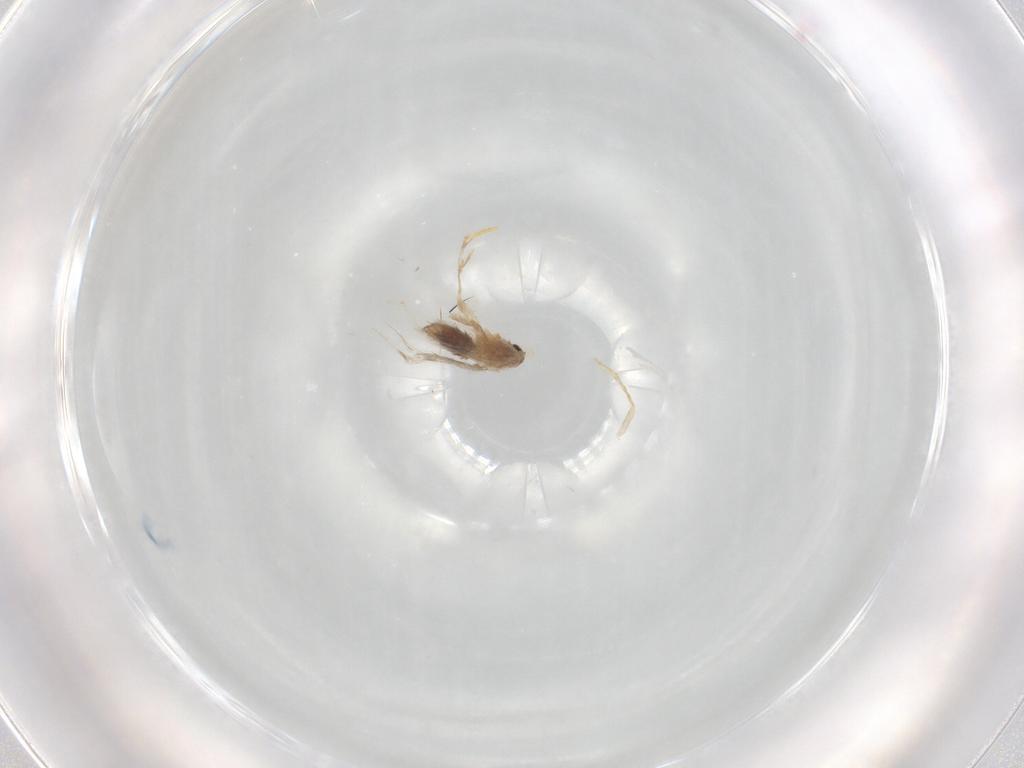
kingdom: Animalia
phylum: Arthropoda
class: Insecta
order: Lepidoptera
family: Nepticulidae
